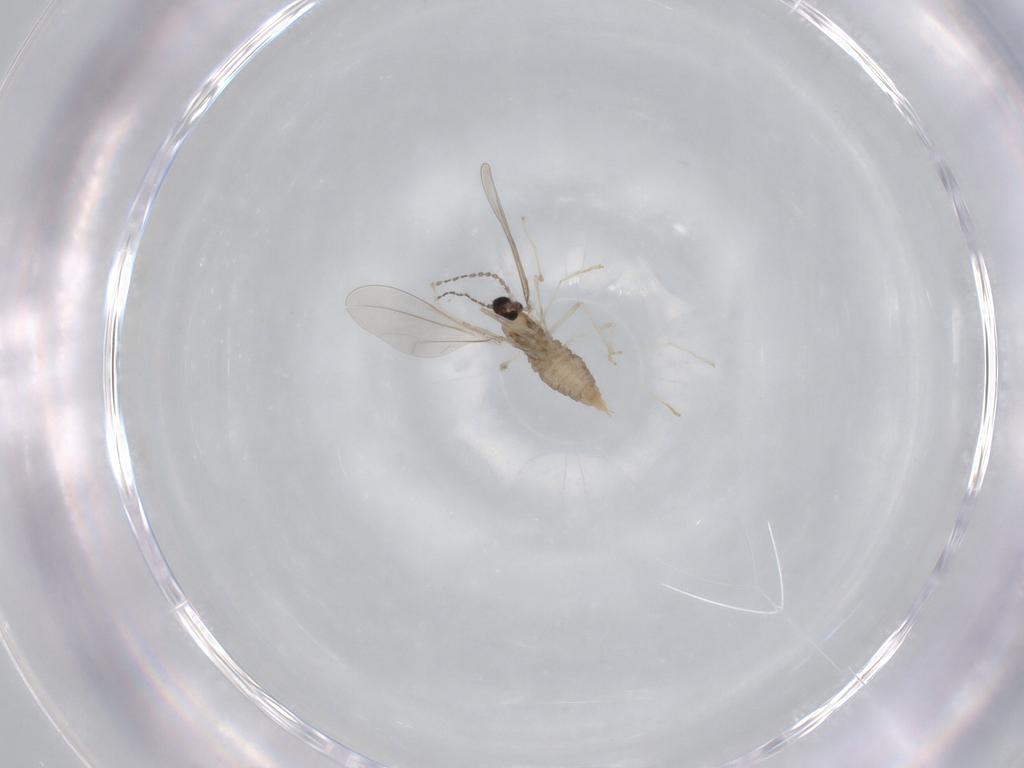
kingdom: Animalia
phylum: Arthropoda
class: Insecta
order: Diptera
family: Cecidomyiidae
